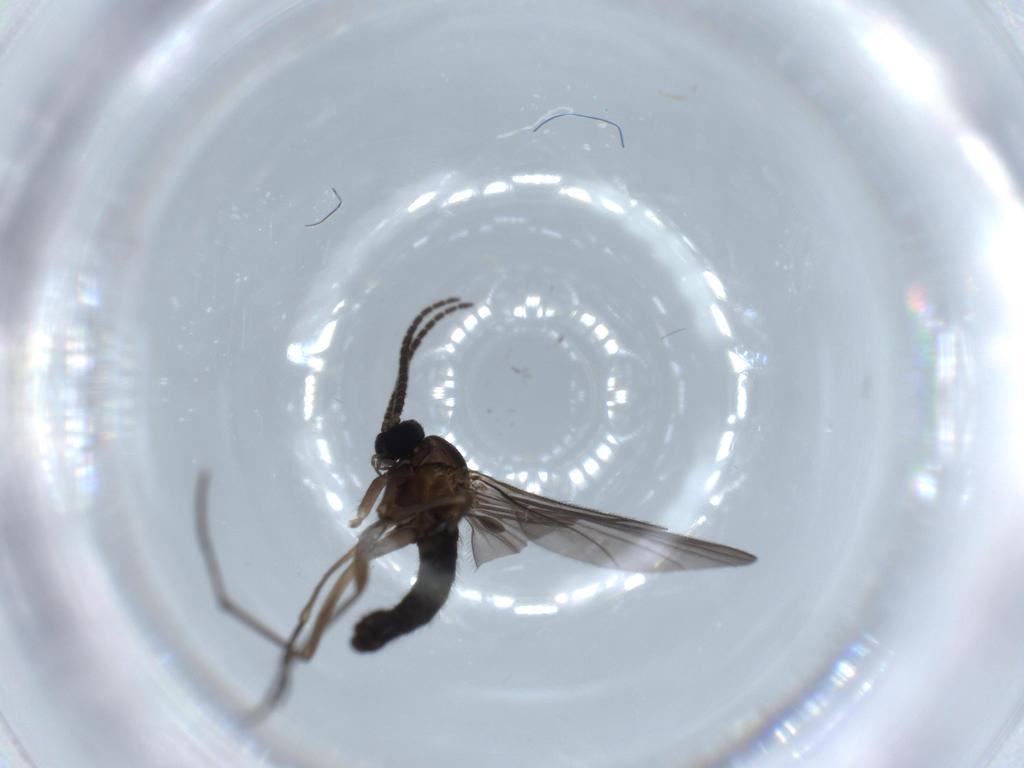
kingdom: Animalia
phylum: Arthropoda
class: Insecta
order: Diptera
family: Sciaridae
